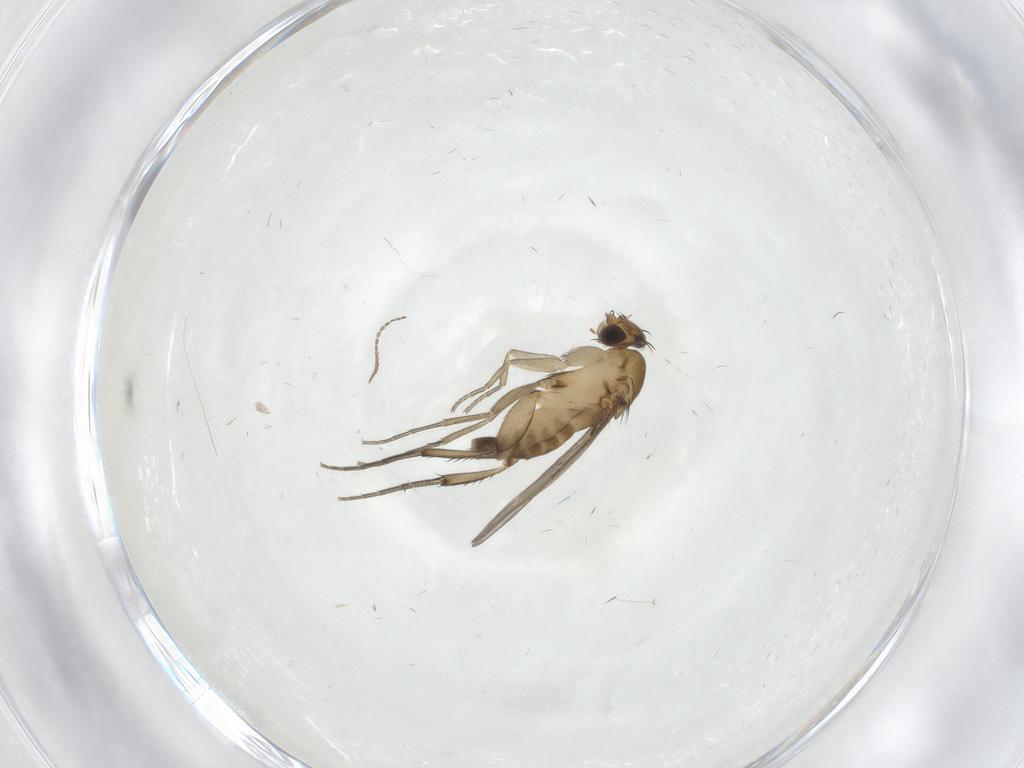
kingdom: Animalia
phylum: Arthropoda
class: Insecta
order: Diptera
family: Phoridae
